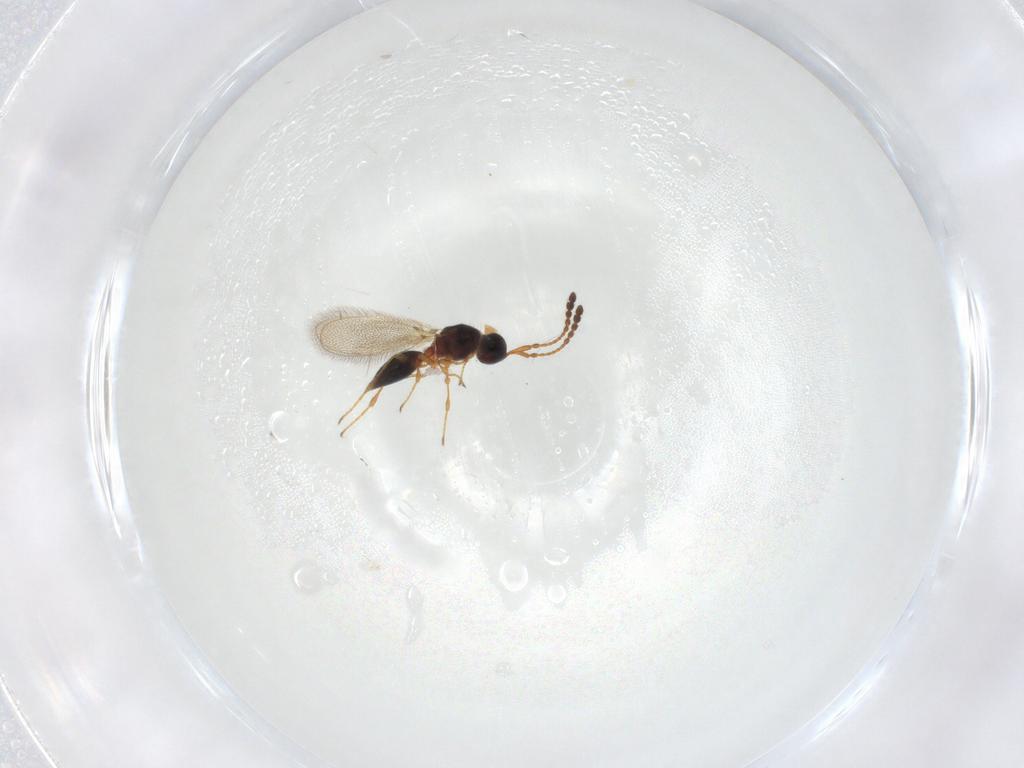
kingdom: Animalia
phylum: Arthropoda
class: Insecta
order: Hymenoptera
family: Diapriidae
